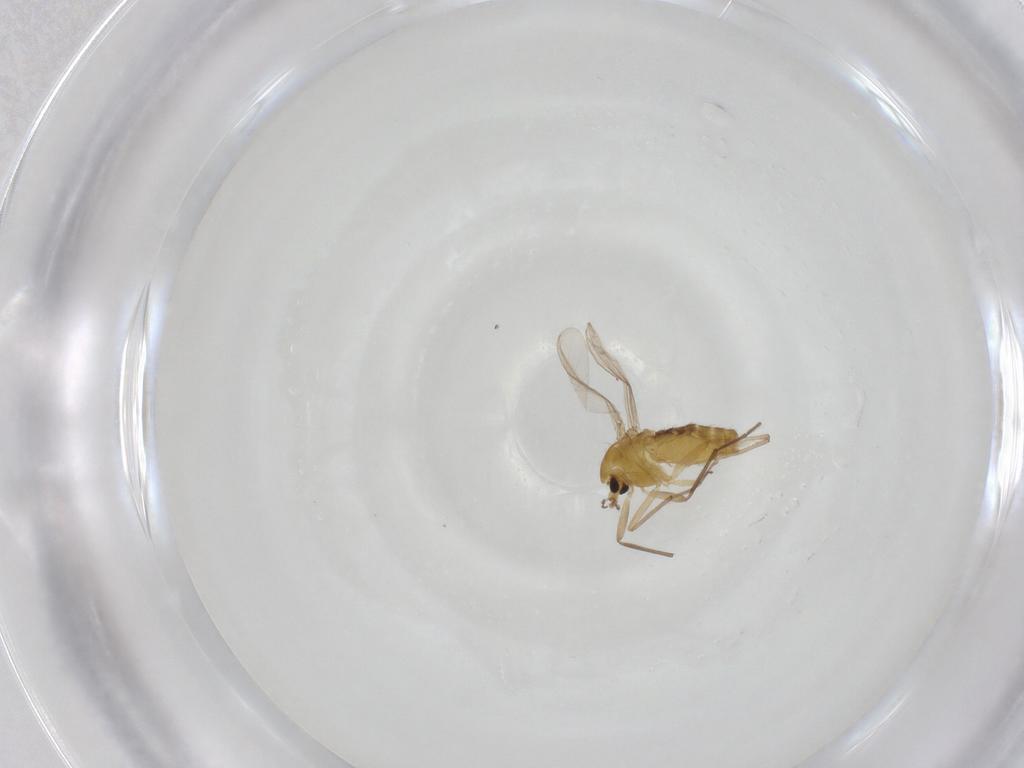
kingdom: Animalia
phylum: Arthropoda
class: Insecta
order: Diptera
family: Chironomidae
